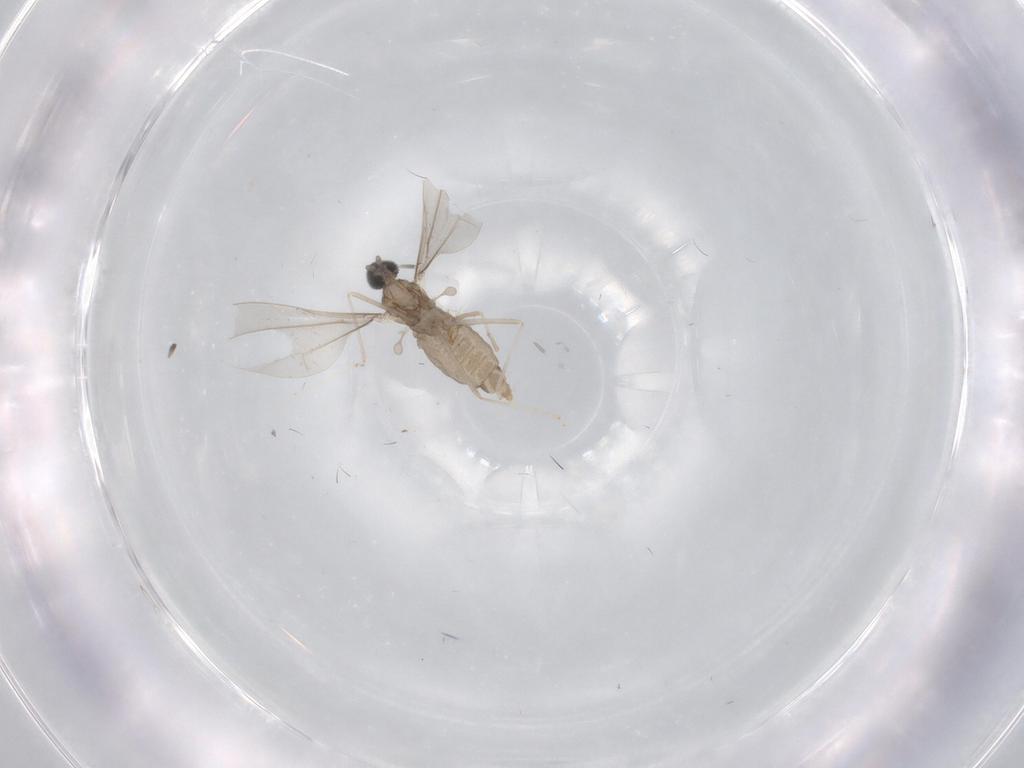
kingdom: Animalia
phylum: Arthropoda
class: Insecta
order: Diptera
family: Cecidomyiidae
